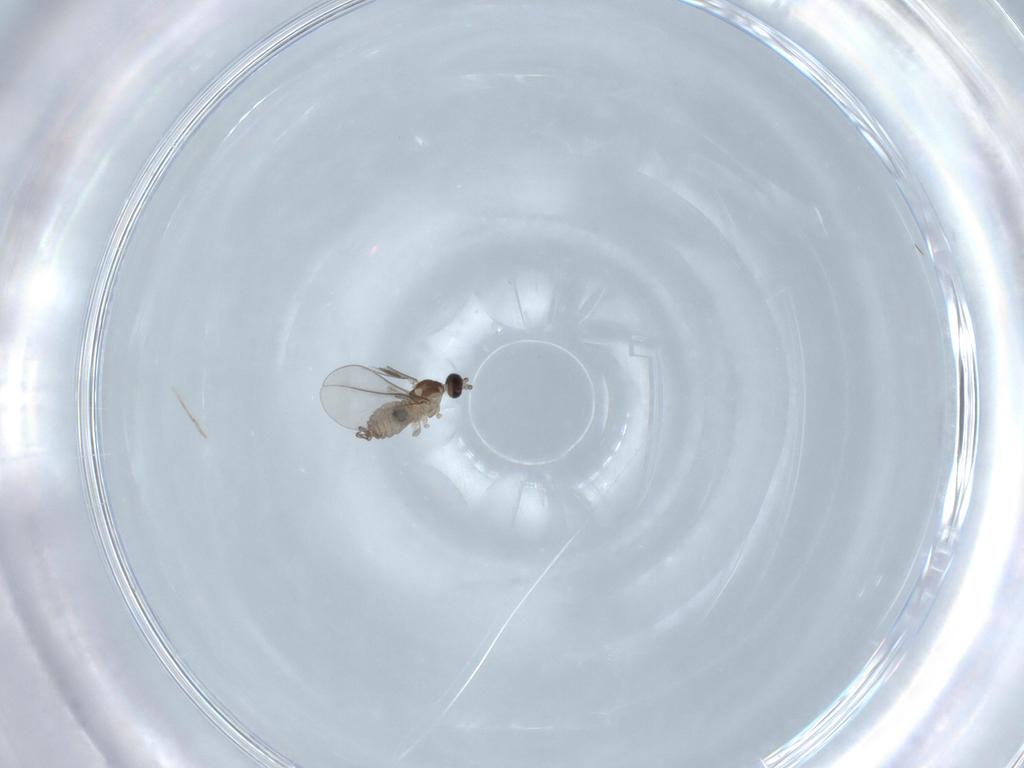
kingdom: Animalia
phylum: Arthropoda
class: Insecta
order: Diptera
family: Cecidomyiidae
